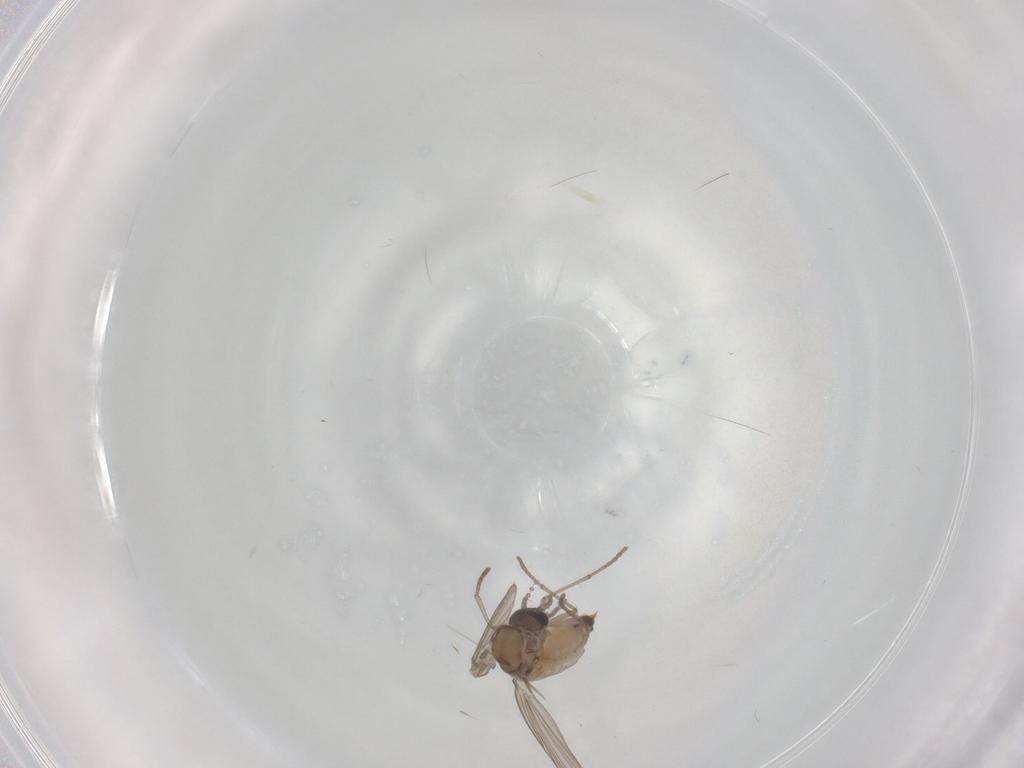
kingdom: Animalia
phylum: Arthropoda
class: Insecta
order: Diptera
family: Psychodidae
